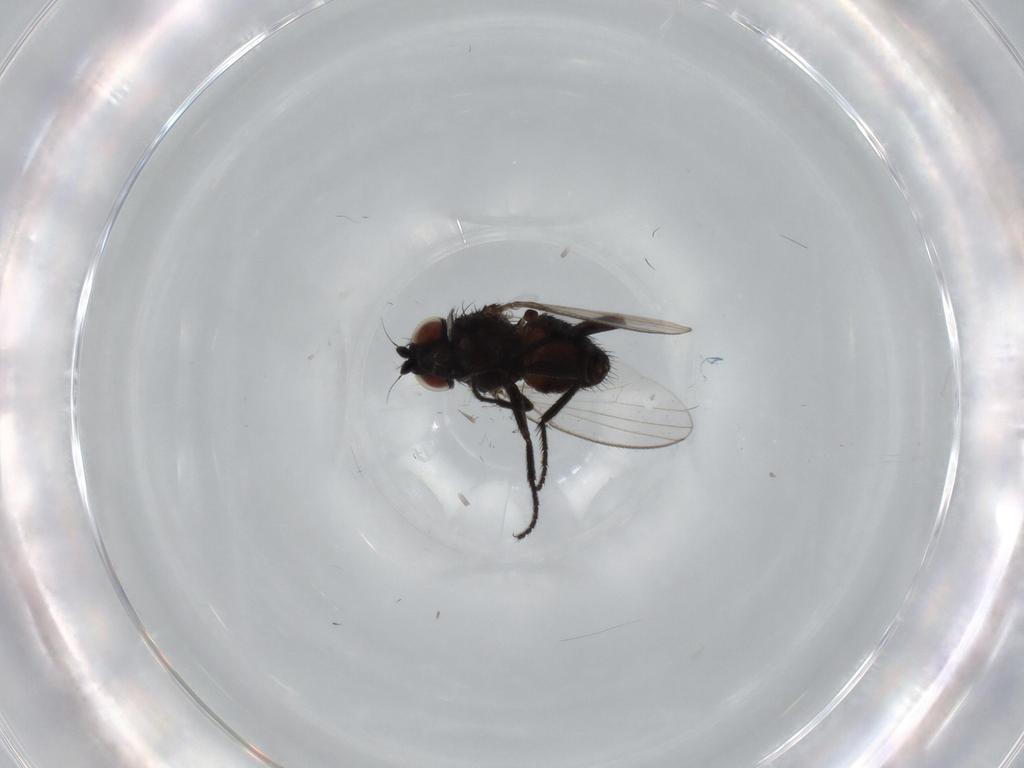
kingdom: Animalia
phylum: Arthropoda
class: Insecta
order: Diptera
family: Milichiidae
